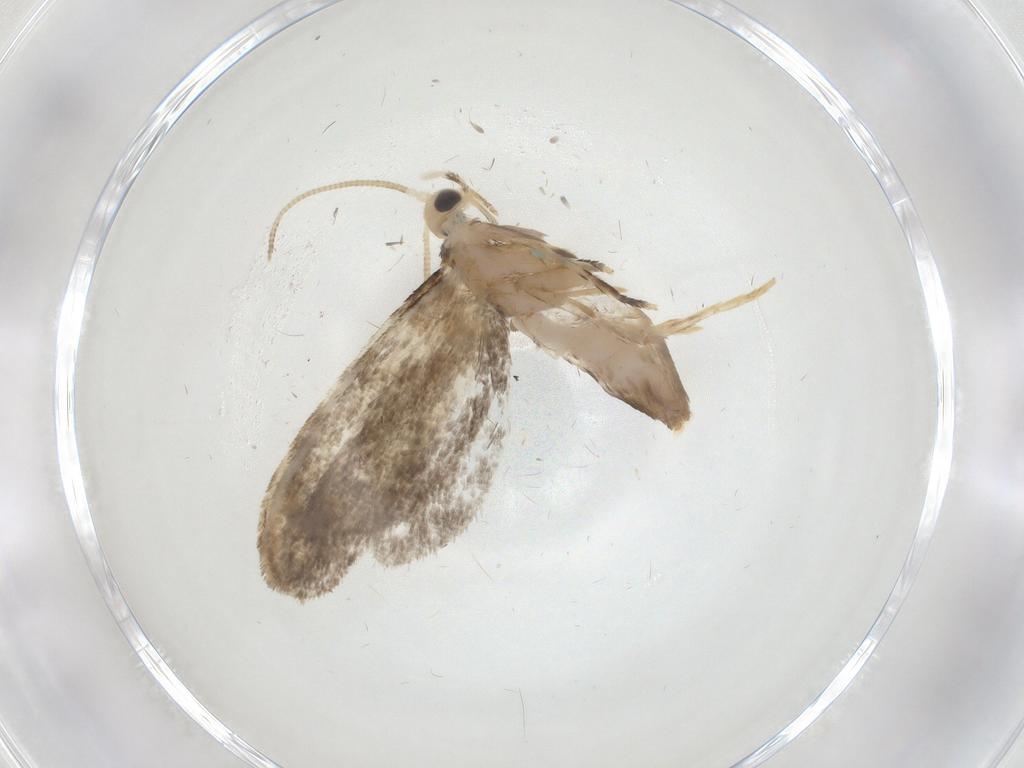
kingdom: Animalia
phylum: Arthropoda
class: Insecta
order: Lepidoptera
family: Dryadaulidae
